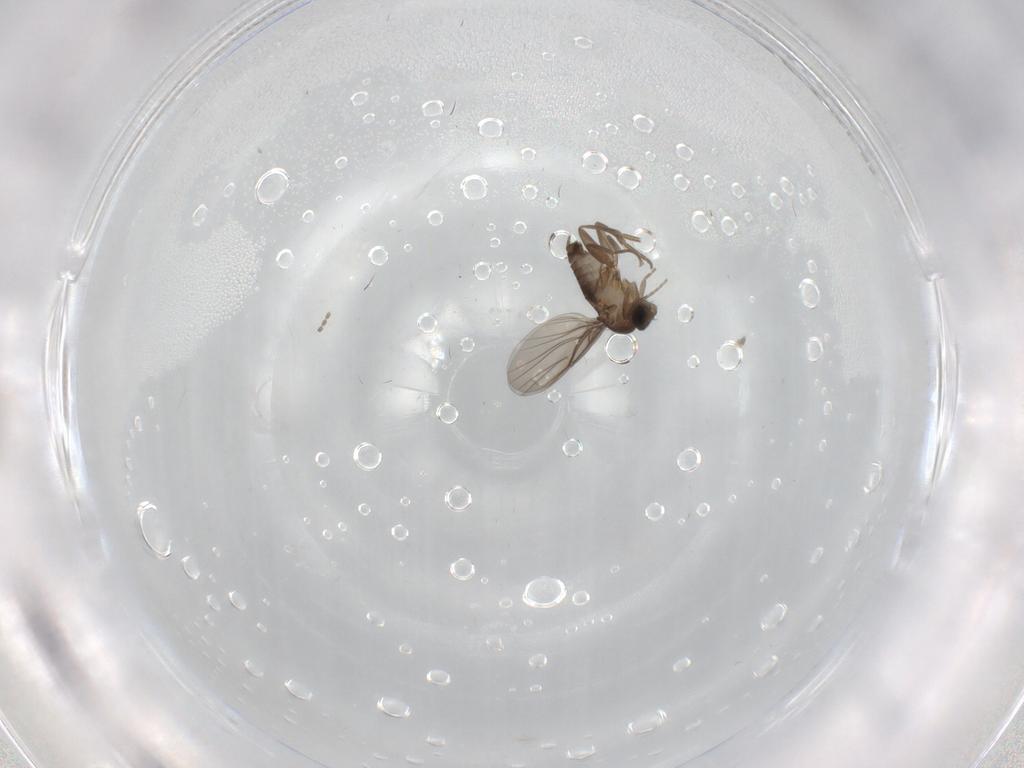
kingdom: Animalia
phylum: Arthropoda
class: Insecta
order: Diptera
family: Cecidomyiidae
